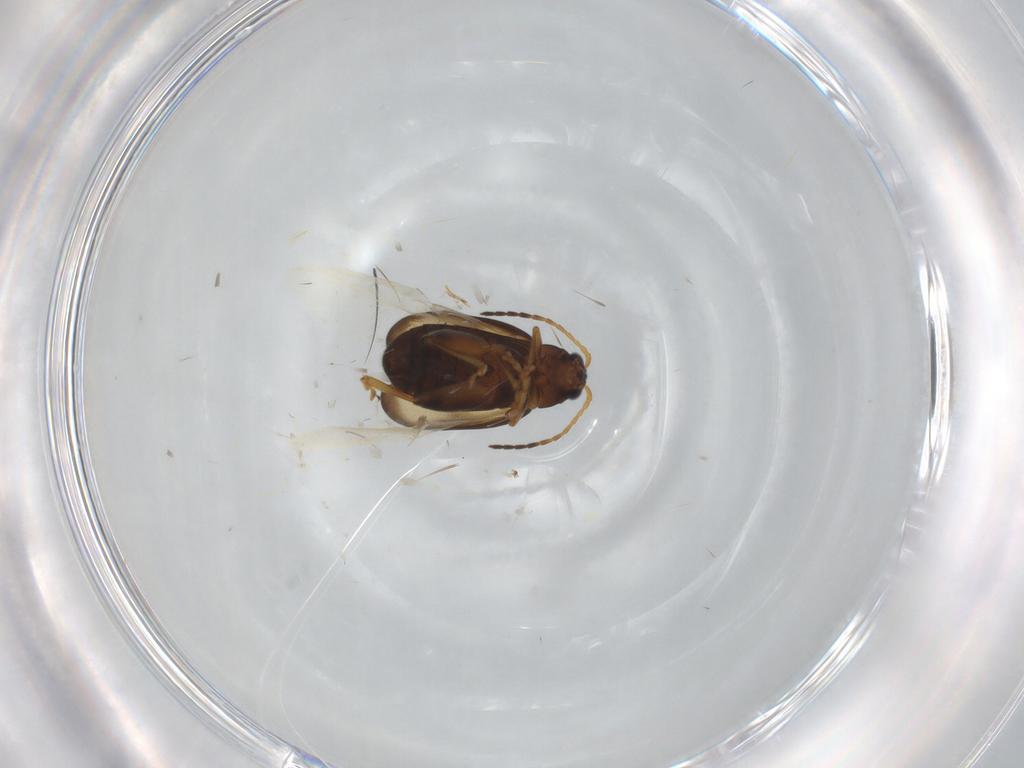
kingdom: Animalia
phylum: Arthropoda
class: Insecta
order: Coleoptera
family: Chrysomelidae
